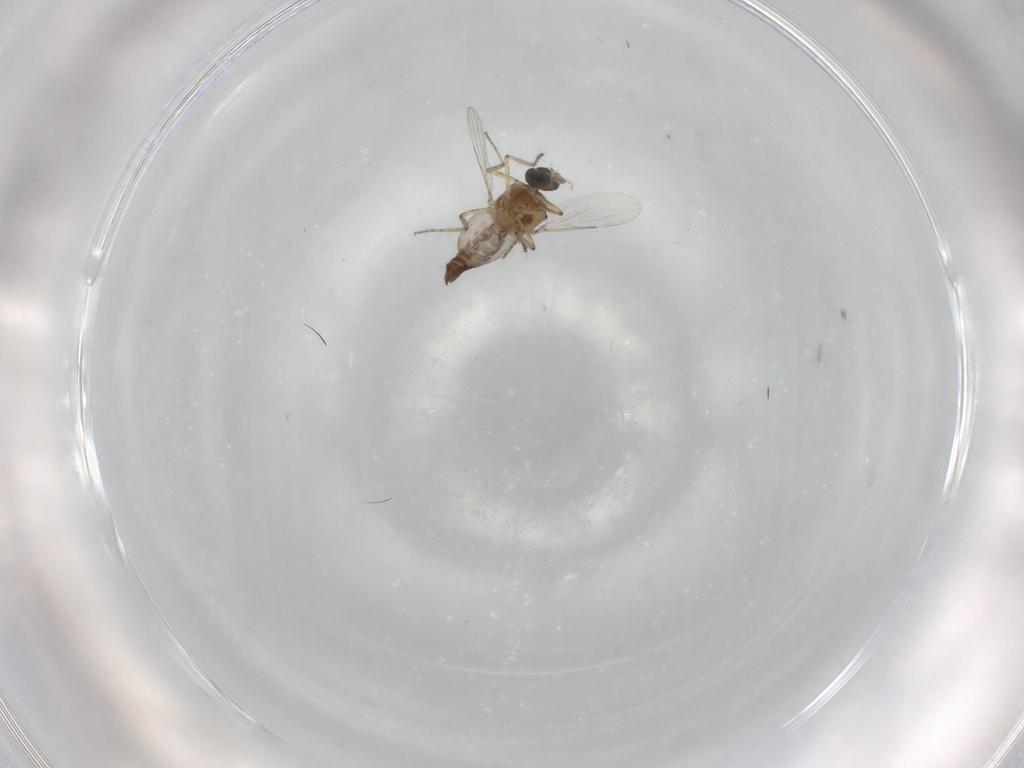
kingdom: Animalia
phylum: Arthropoda
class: Insecta
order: Diptera
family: Ceratopogonidae
